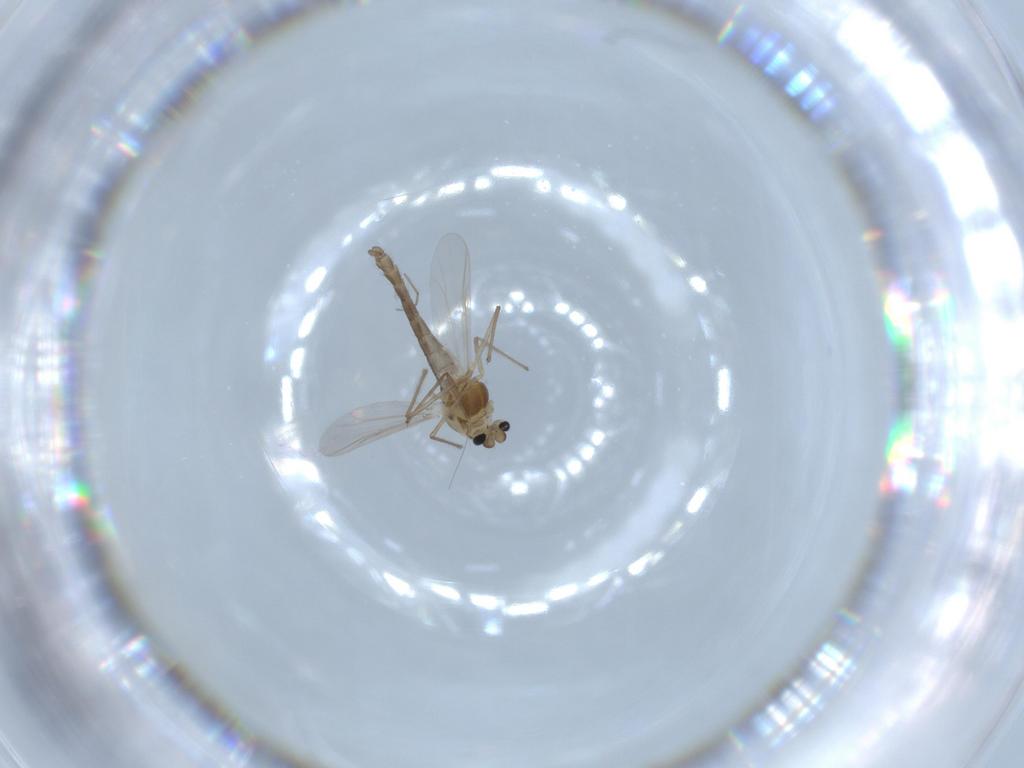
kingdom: Animalia
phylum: Arthropoda
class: Insecta
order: Diptera
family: Chironomidae
